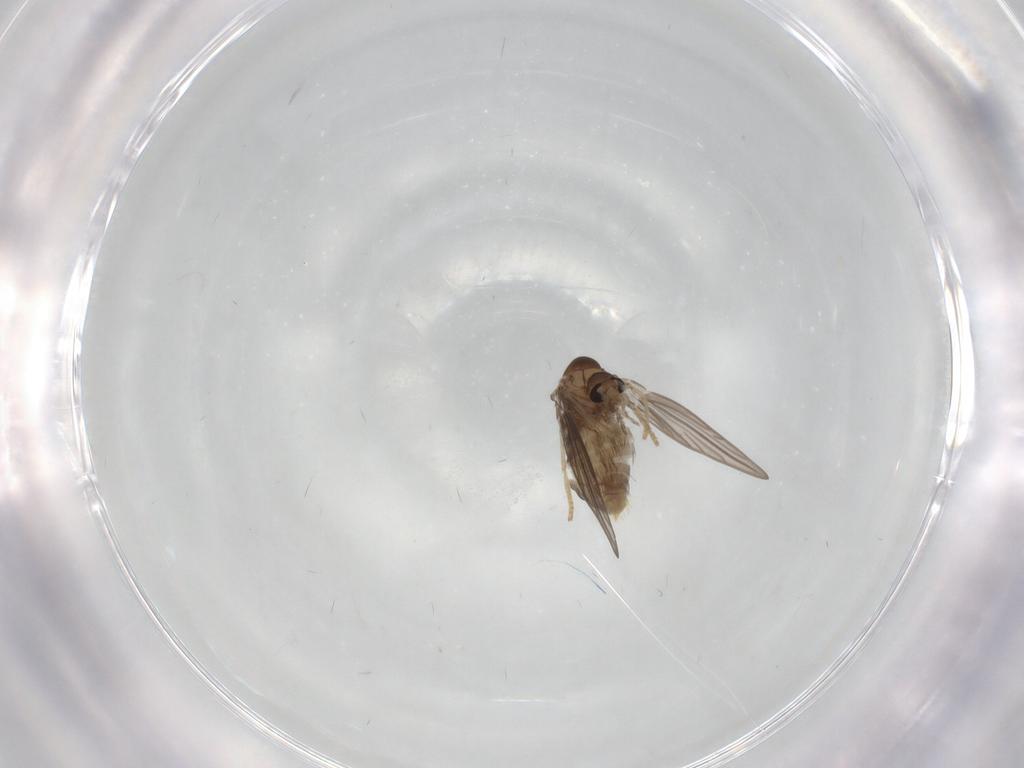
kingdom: Animalia
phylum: Arthropoda
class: Insecta
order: Diptera
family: Psychodidae
